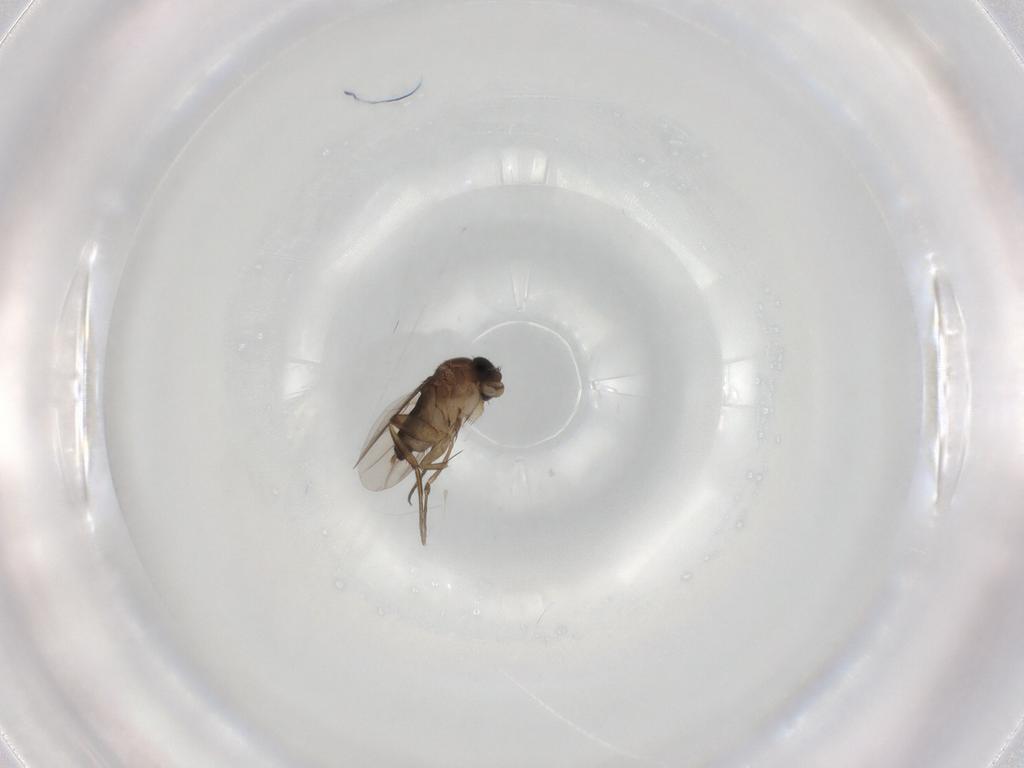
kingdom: Animalia
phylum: Arthropoda
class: Insecta
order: Diptera
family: Phoridae
